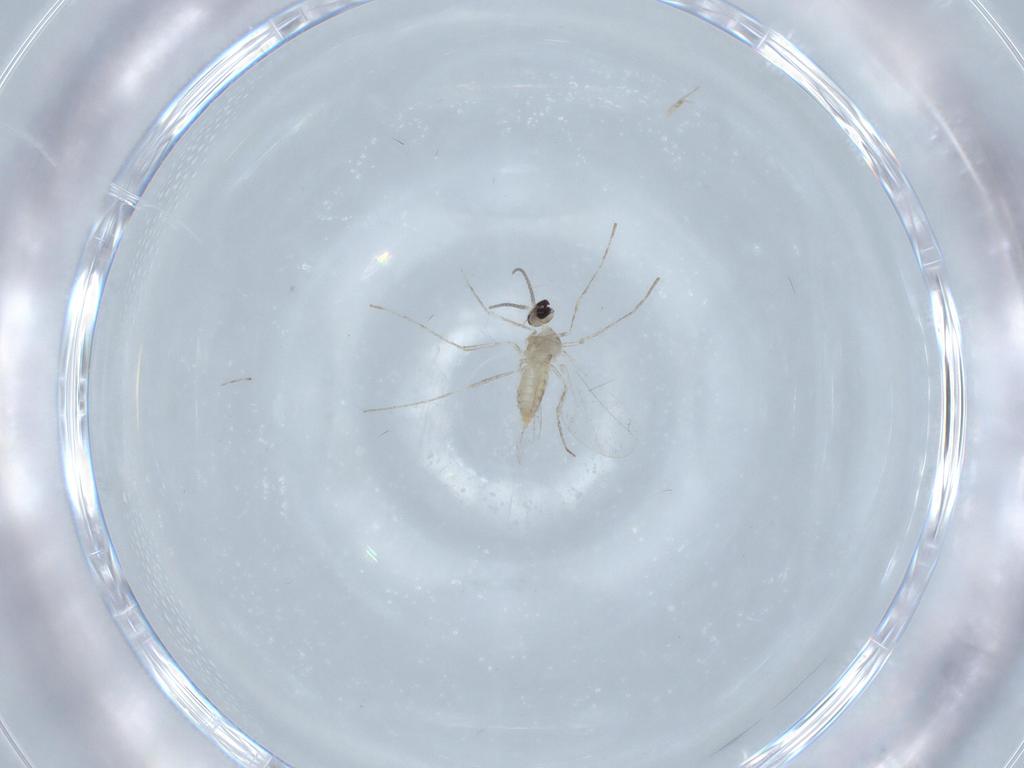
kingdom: Animalia
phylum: Arthropoda
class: Insecta
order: Diptera
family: Cecidomyiidae
